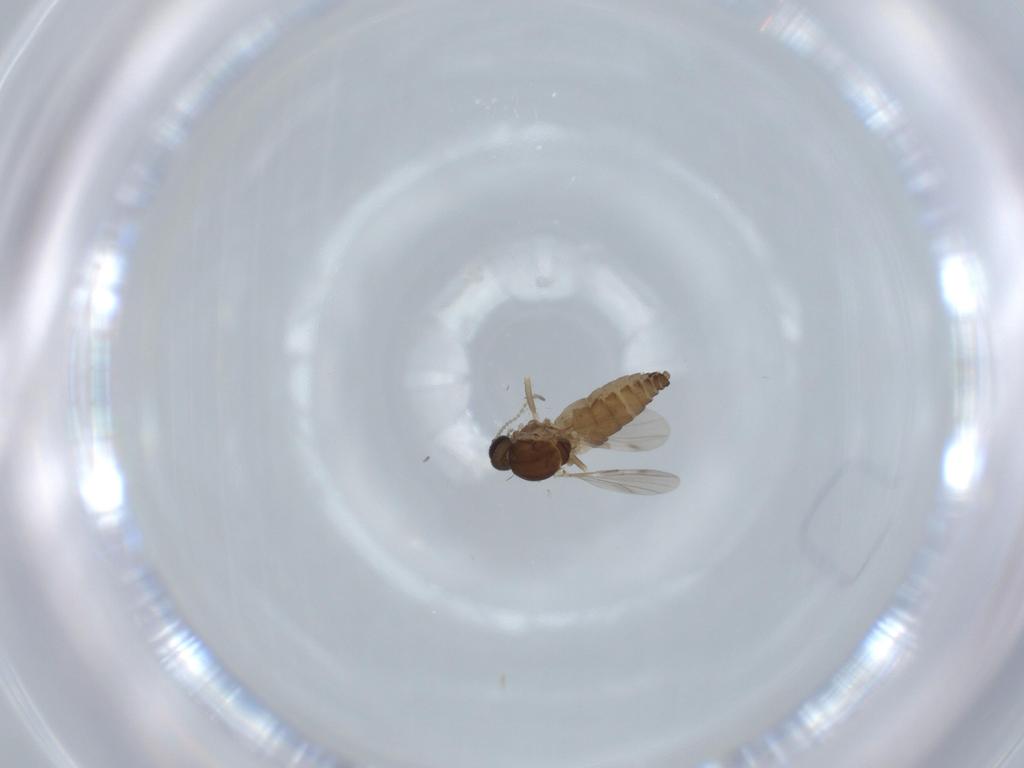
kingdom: Animalia
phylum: Arthropoda
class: Insecta
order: Diptera
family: Ceratopogonidae
